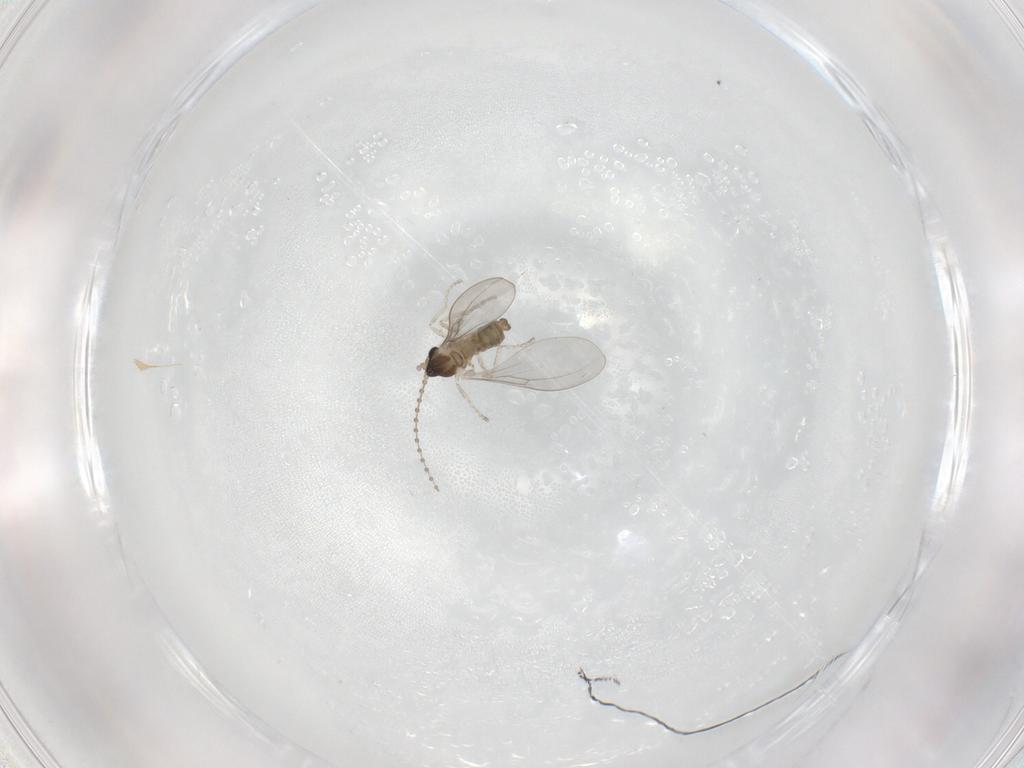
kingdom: Animalia
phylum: Arthropoda
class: Insecta
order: Diptera
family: Cecidomyiidae
